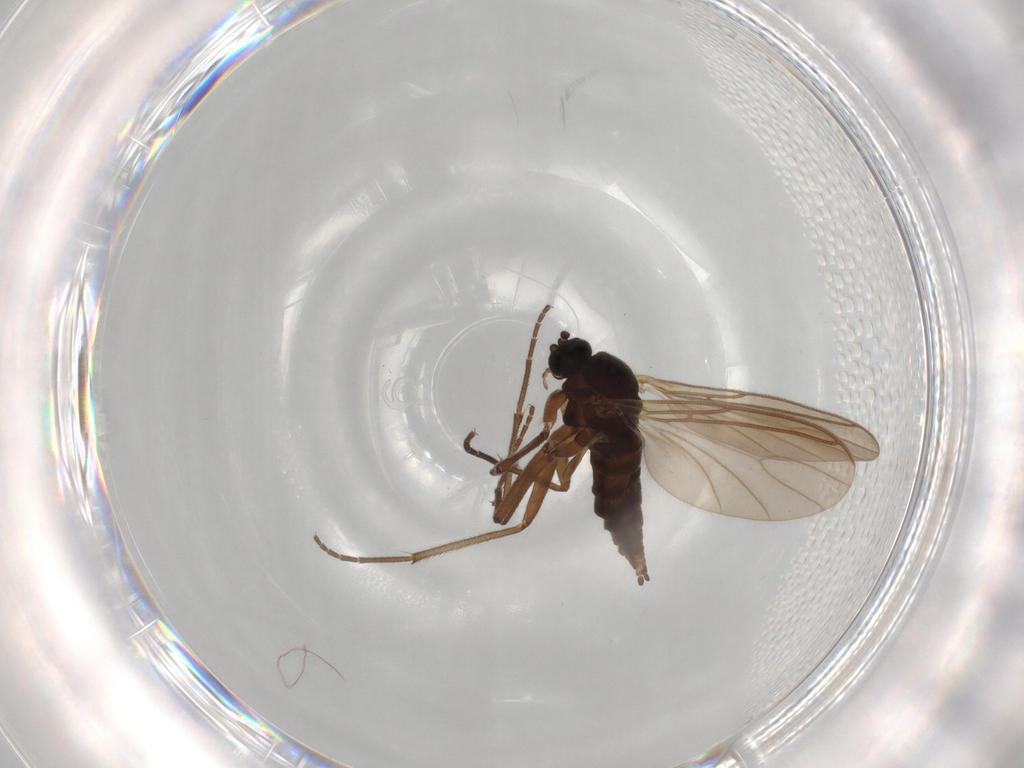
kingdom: Animalia
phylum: Arthropoda
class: Insecta
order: Diptera
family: Sciaridae
